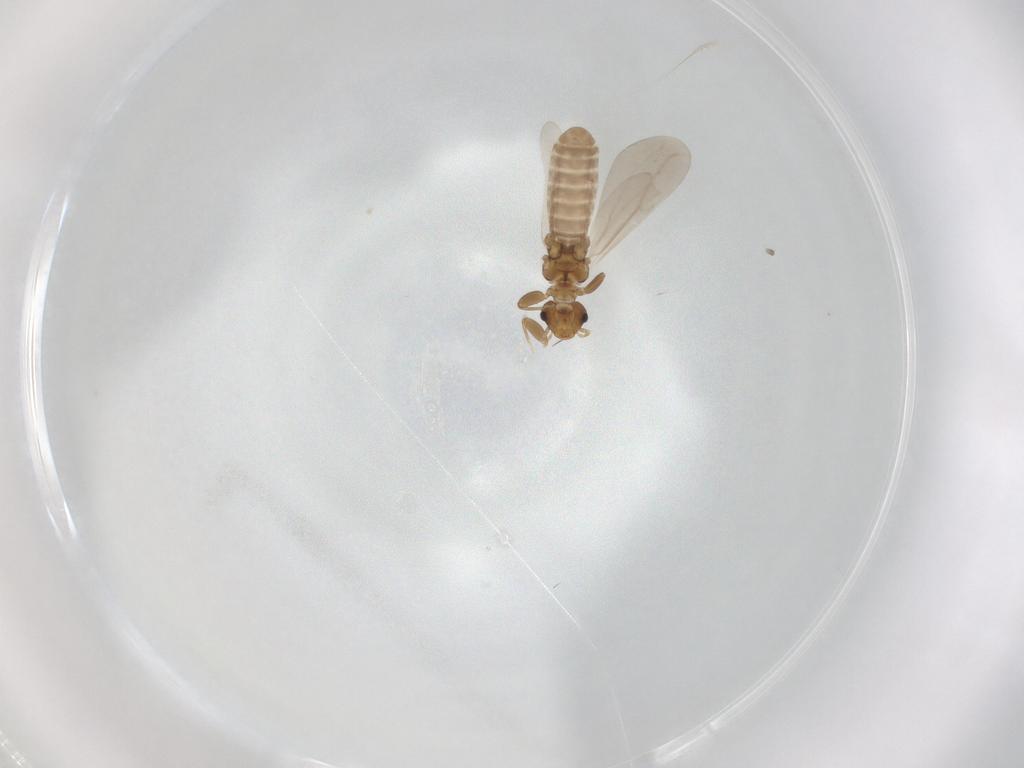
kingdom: Animalia
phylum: Arthropoda
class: Insecta
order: Psocodea
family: Liposcelididae
